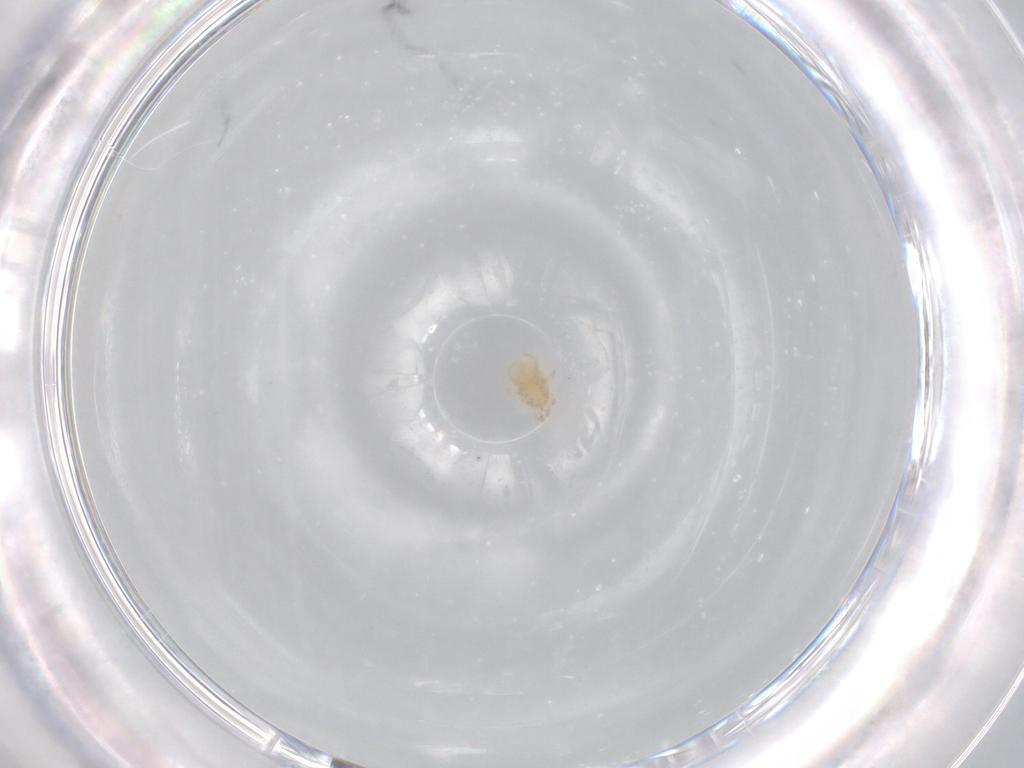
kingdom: Animalia
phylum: Arthropoda
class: Arachnida
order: Mesostigmata
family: Melicharidae
